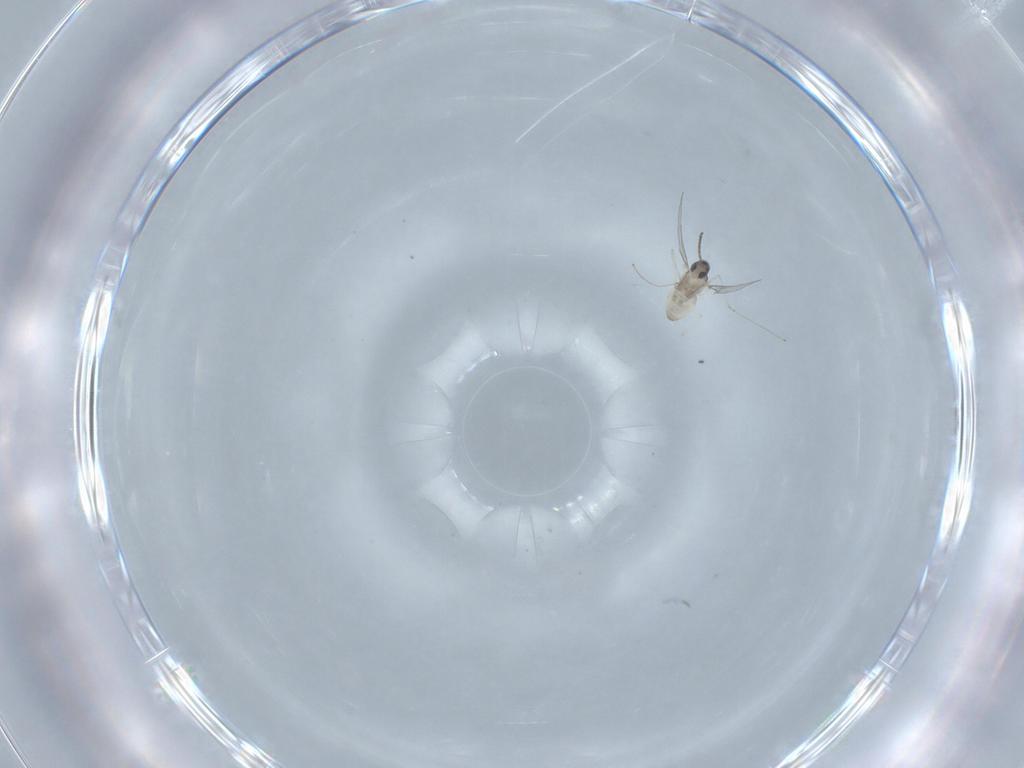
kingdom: Animalia
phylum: Arthropoda
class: Insecta
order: Diptera
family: Cecidomyiidae
